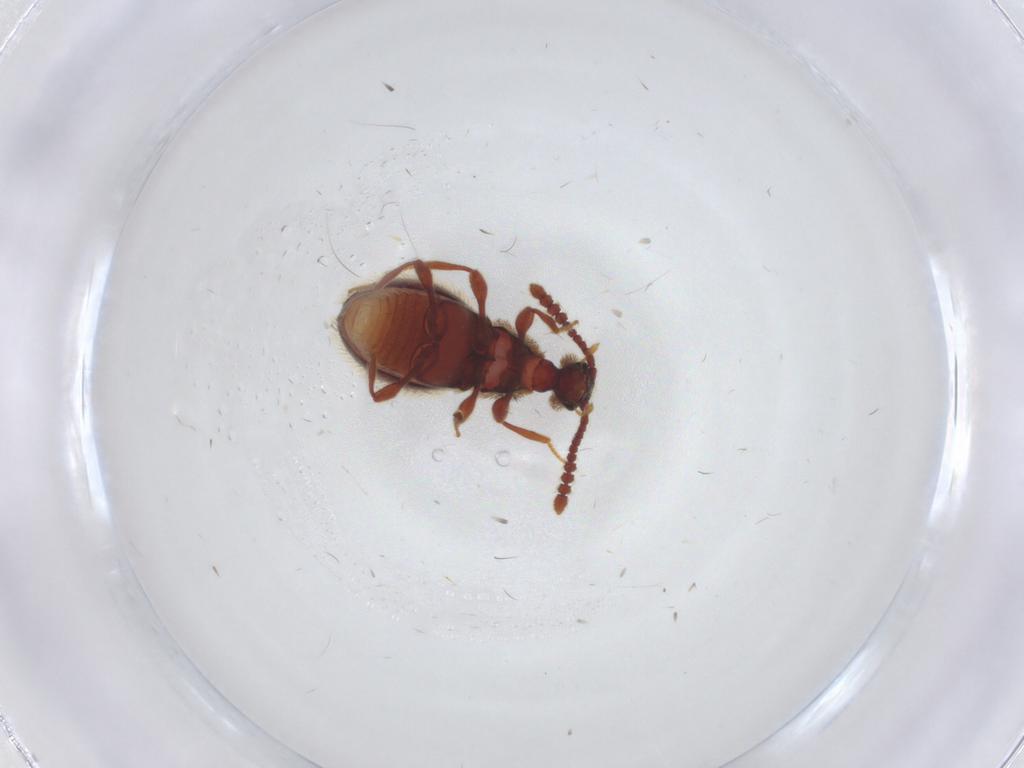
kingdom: Animalia
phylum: Arthropoda
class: Insecta
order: Coleoptera
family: Staphylinidae
